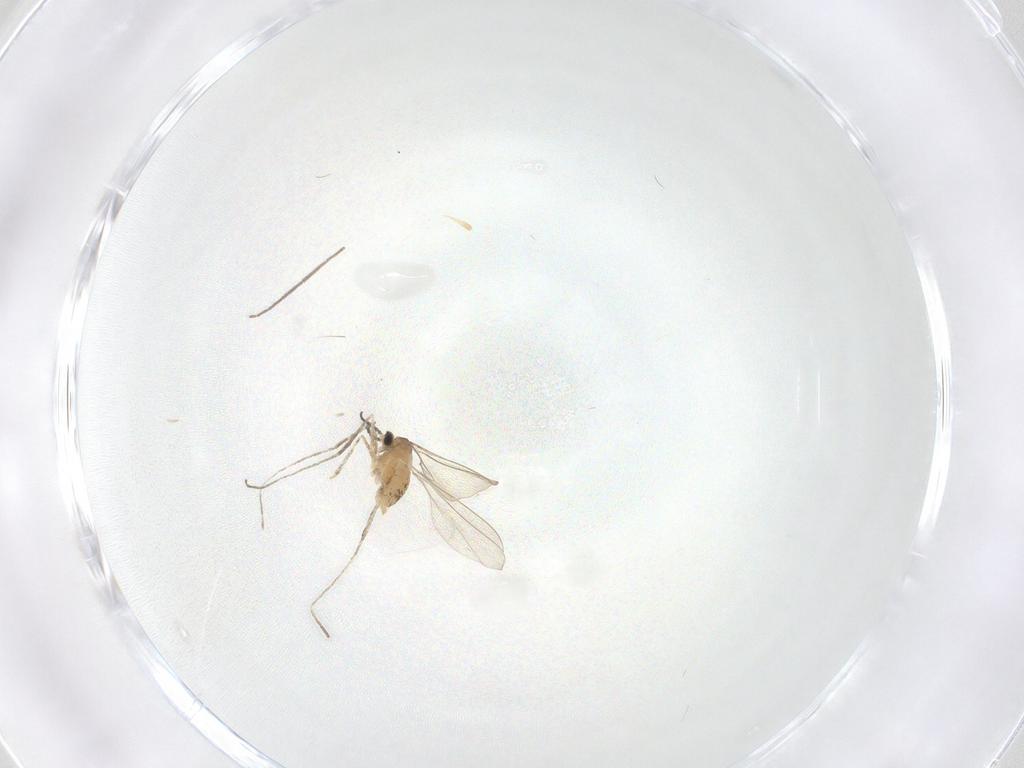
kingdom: Animalia
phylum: Arthropoda
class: Insecta
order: Diptera
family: Cecidomyiidae
